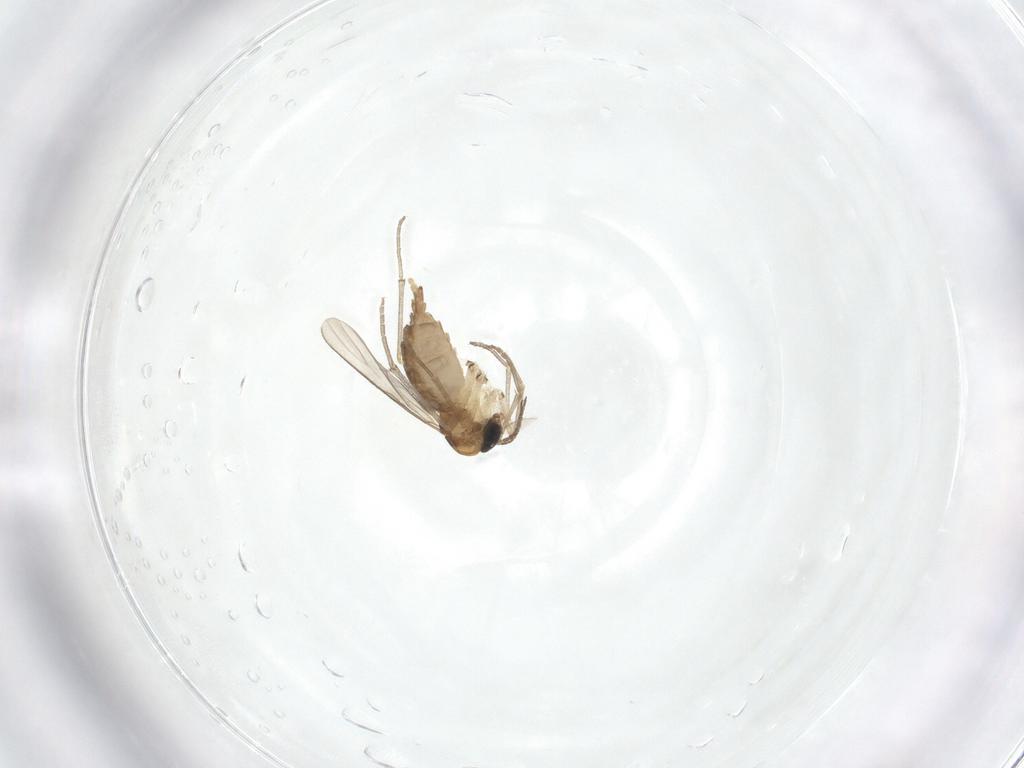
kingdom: Animalia
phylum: Arthropoda
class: Insecta
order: Diptera
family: Sciaridae
